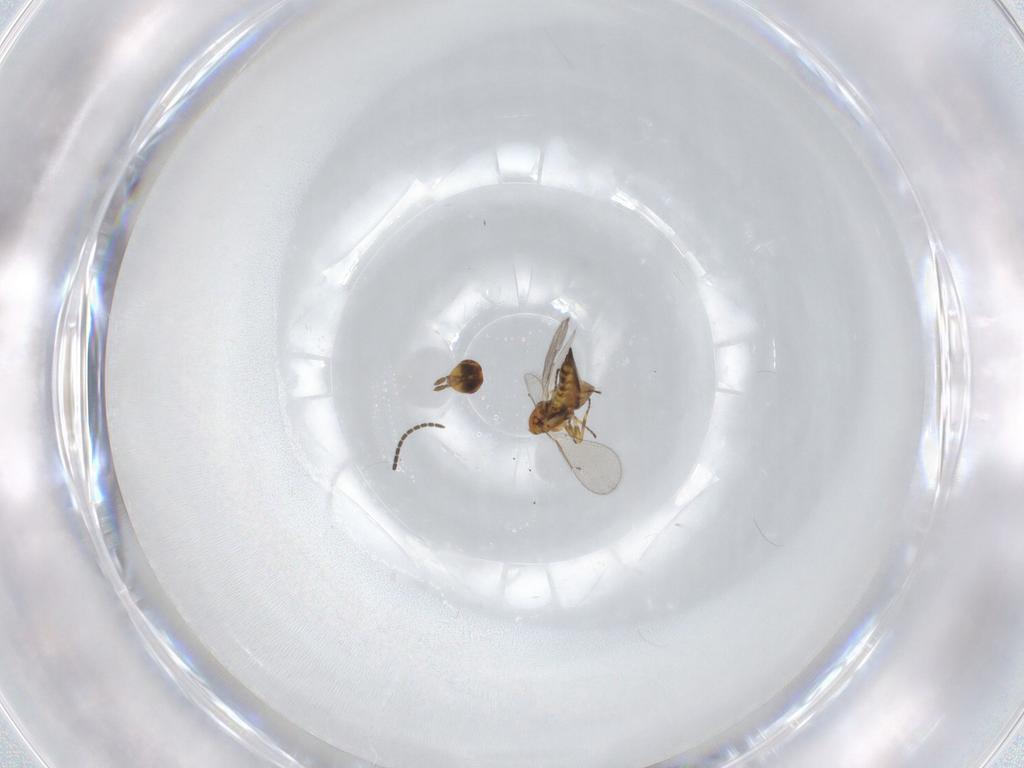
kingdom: Animalia
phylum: Arthropoda
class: Insecta
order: Hymenoptera
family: Eulophidae
